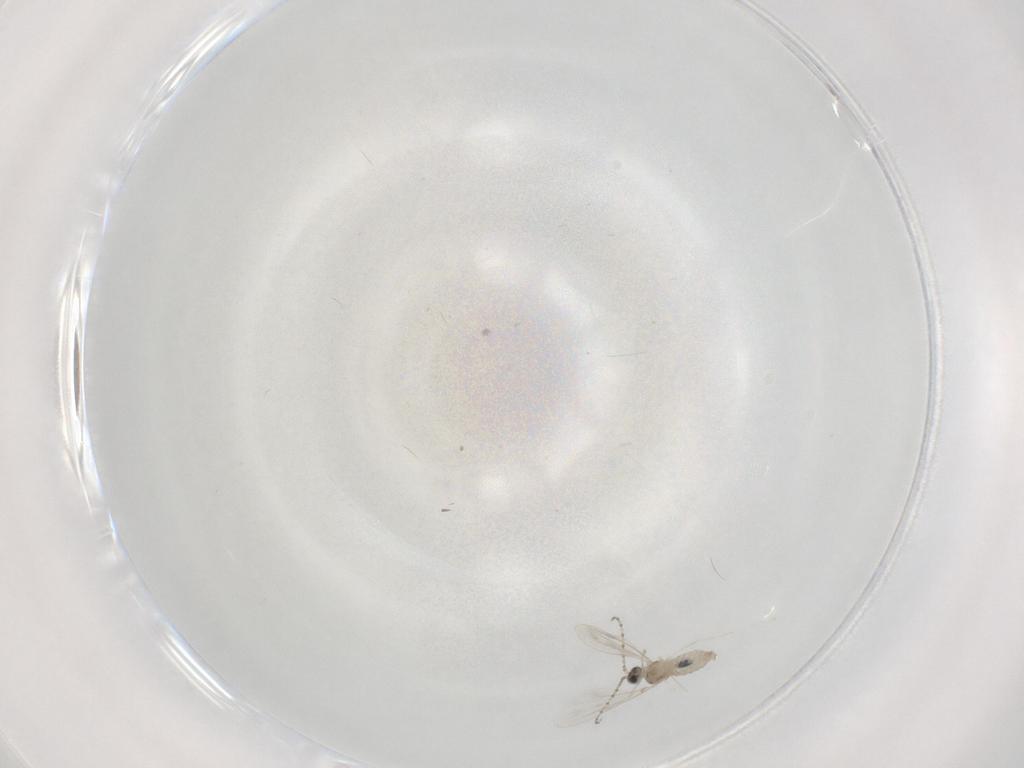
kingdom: Animalia
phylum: Arthropoda
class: Insecta
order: Diptera
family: Cecidomyiidae
